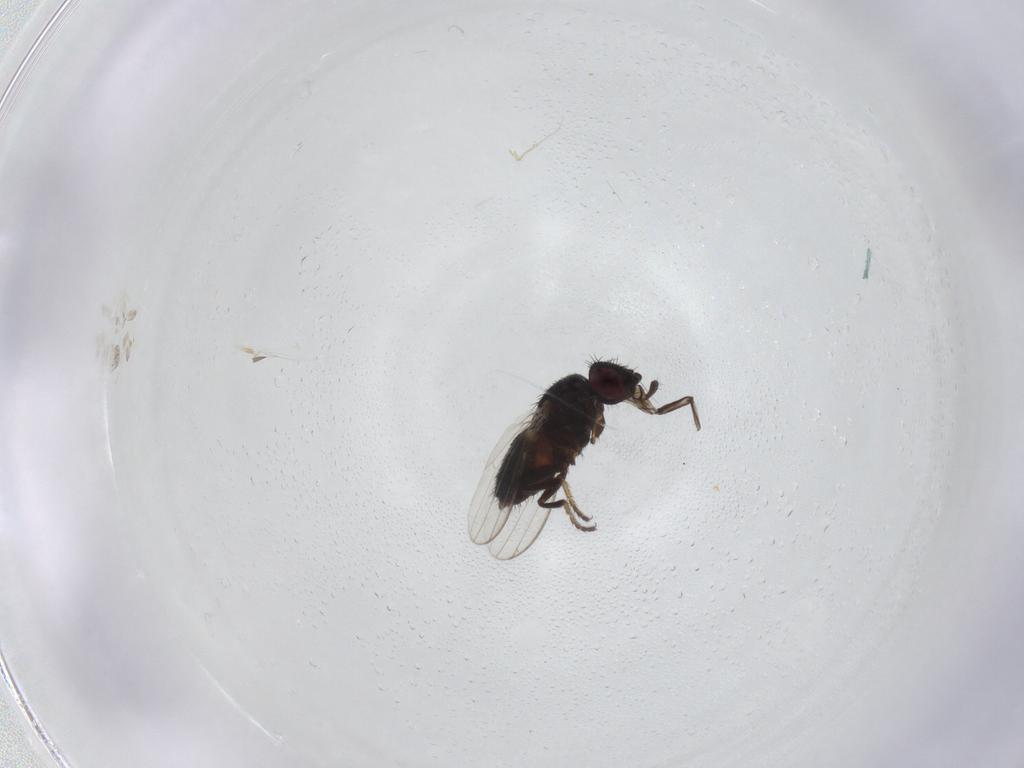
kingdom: Animalia
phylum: Arthropoda
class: Insecta
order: Diptera
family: Milichiidae
